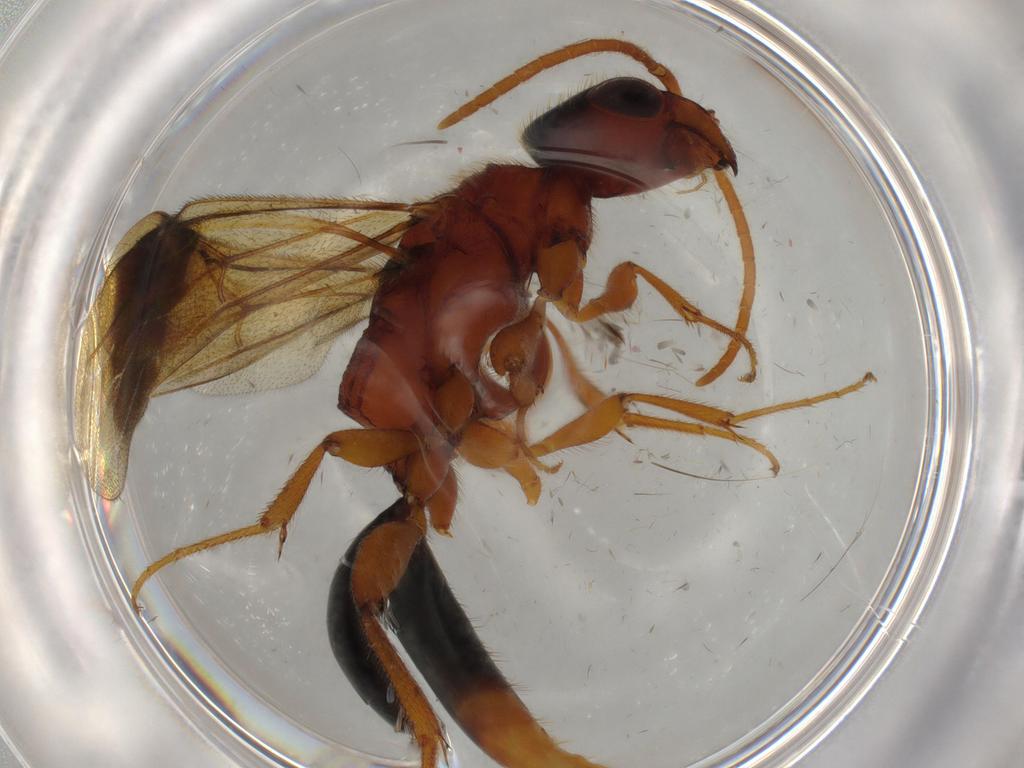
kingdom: Animalia
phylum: Arthropoda
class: Insecta
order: Hymenoptera
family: Bethylidae
